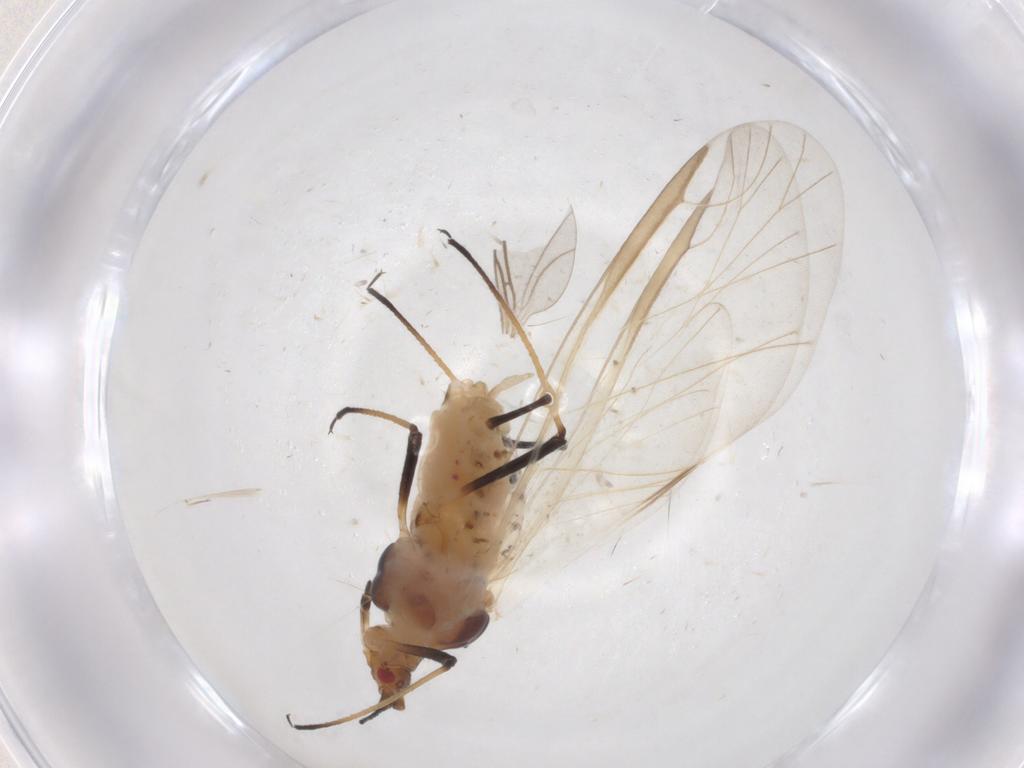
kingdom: Animalia
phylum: Arthropoda
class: Insecta
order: Hemiptera
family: Aphididae
